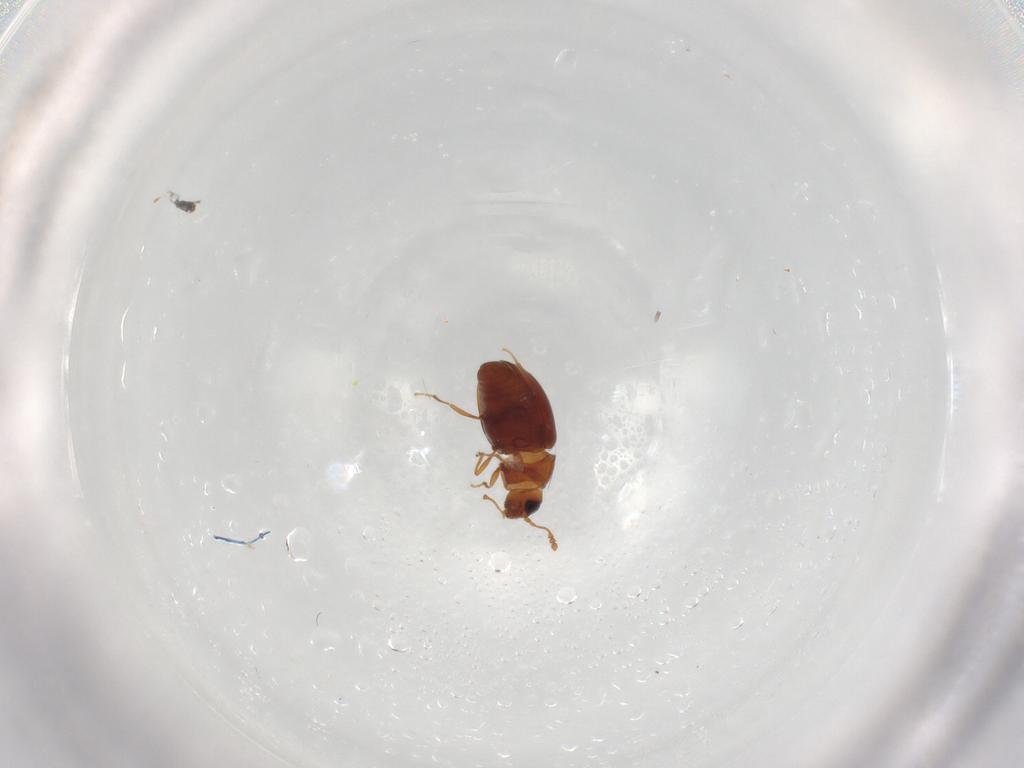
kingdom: Animalia
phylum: Arthropoda
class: Insecta
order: Coleoptera
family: Cryptophagidae
